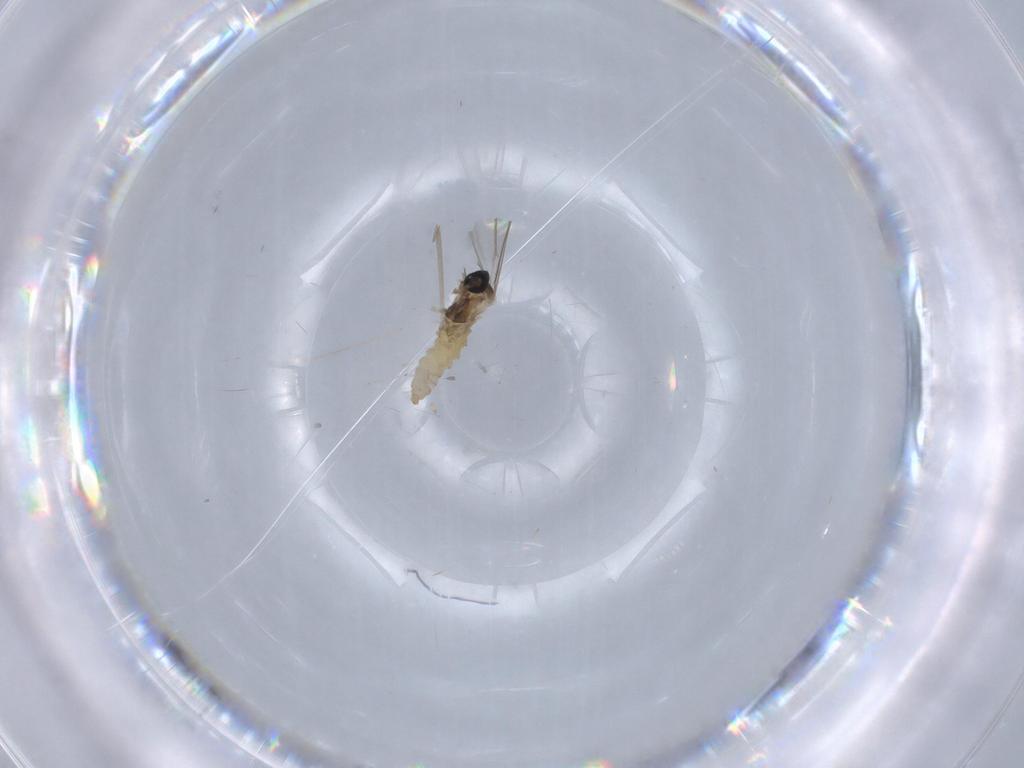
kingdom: Animalia
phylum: Arthropoda
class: Insecta
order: Diptera
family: Cecidomyiidae
